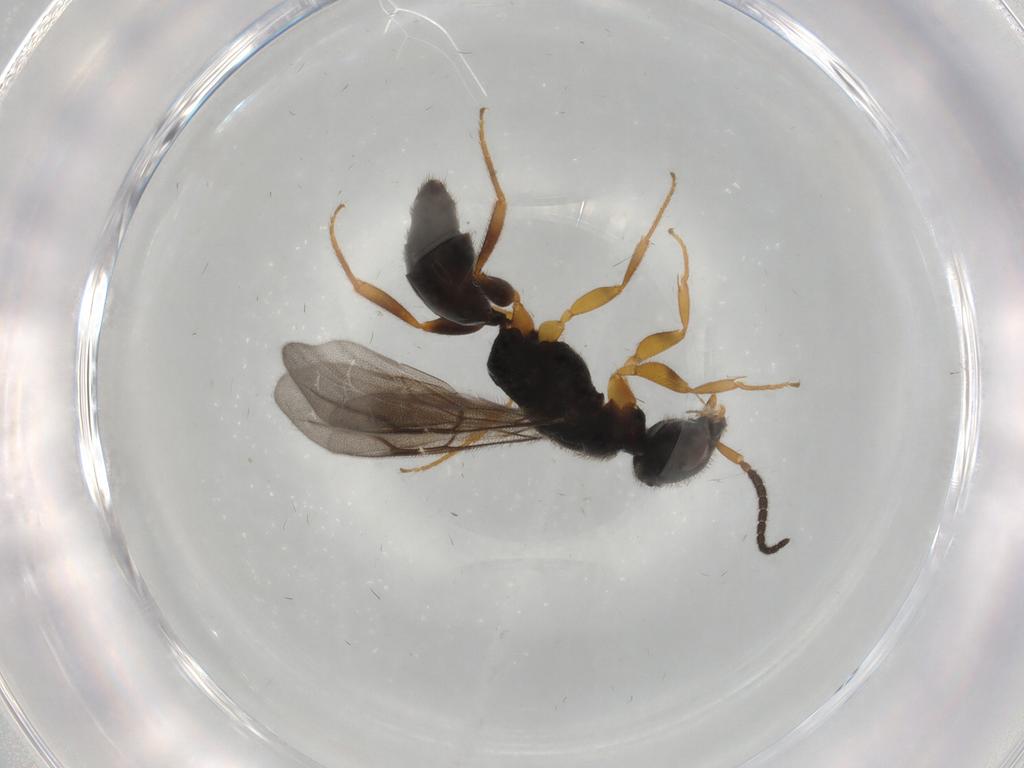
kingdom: Animalia
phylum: Arthropoda
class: Insecta
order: Hymenoptera
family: Bethylidae
